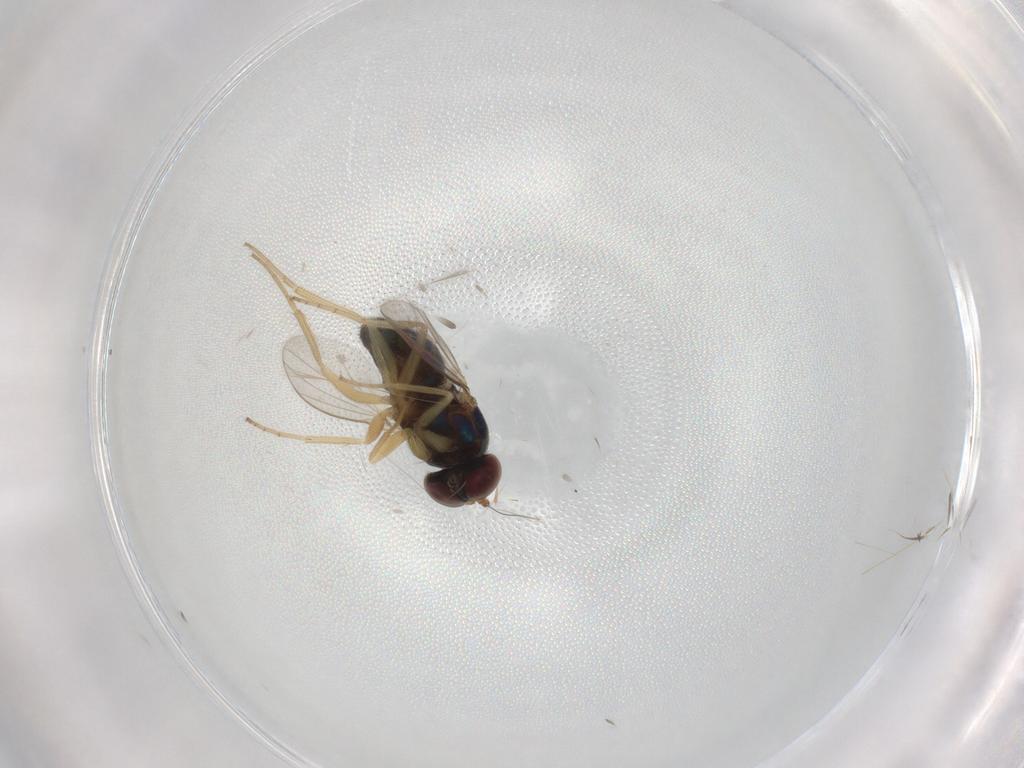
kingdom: Animalia
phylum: Arthropoda
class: Insecta
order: Diptera
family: Dolichopodidae
